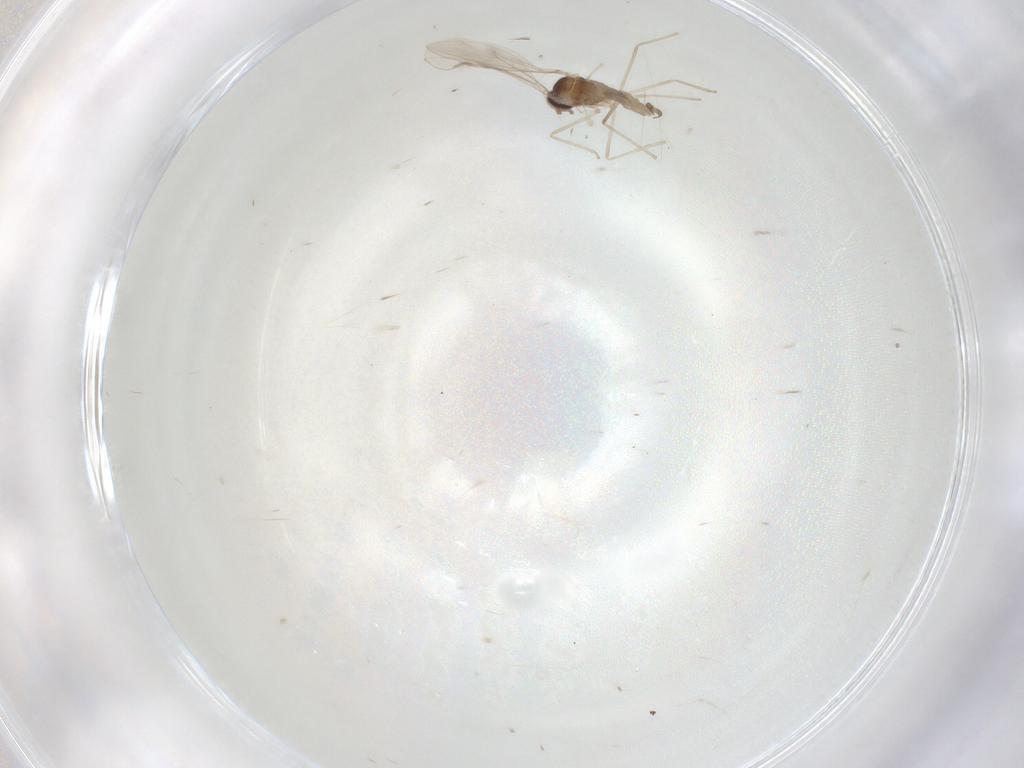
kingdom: Animalia
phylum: Arthropoda
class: Insecta
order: Diptera
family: Cecidomyiidae
